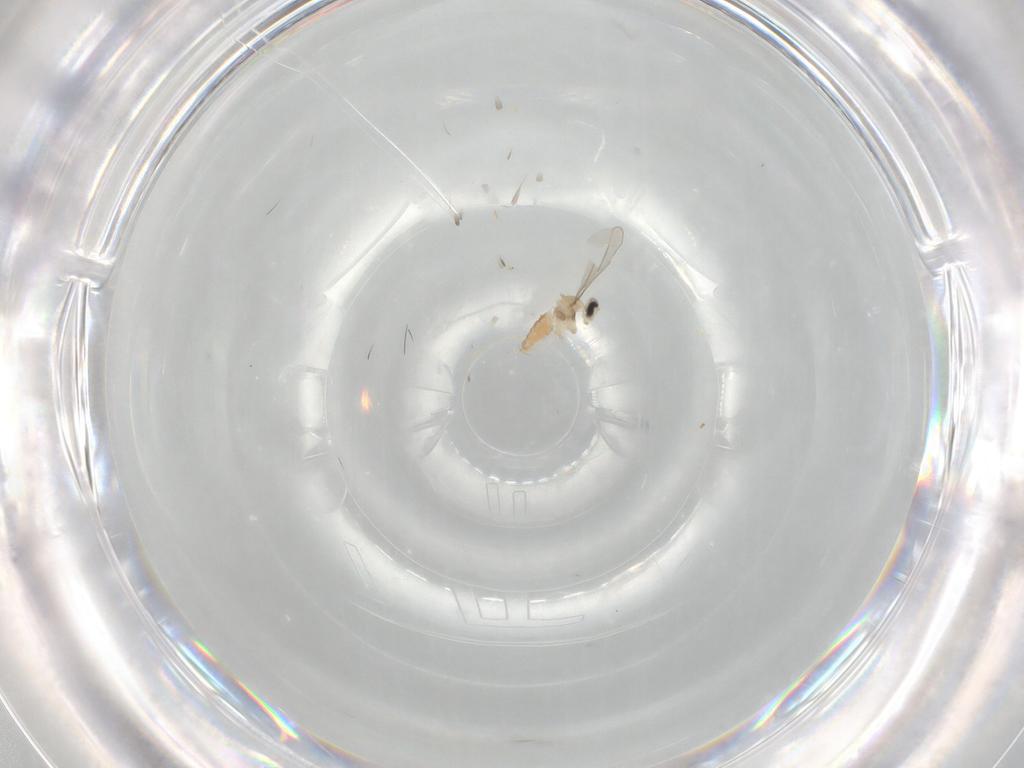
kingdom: Animalia
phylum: Arthropoda
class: Insecta
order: Diptera
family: Cecidomyiidae
